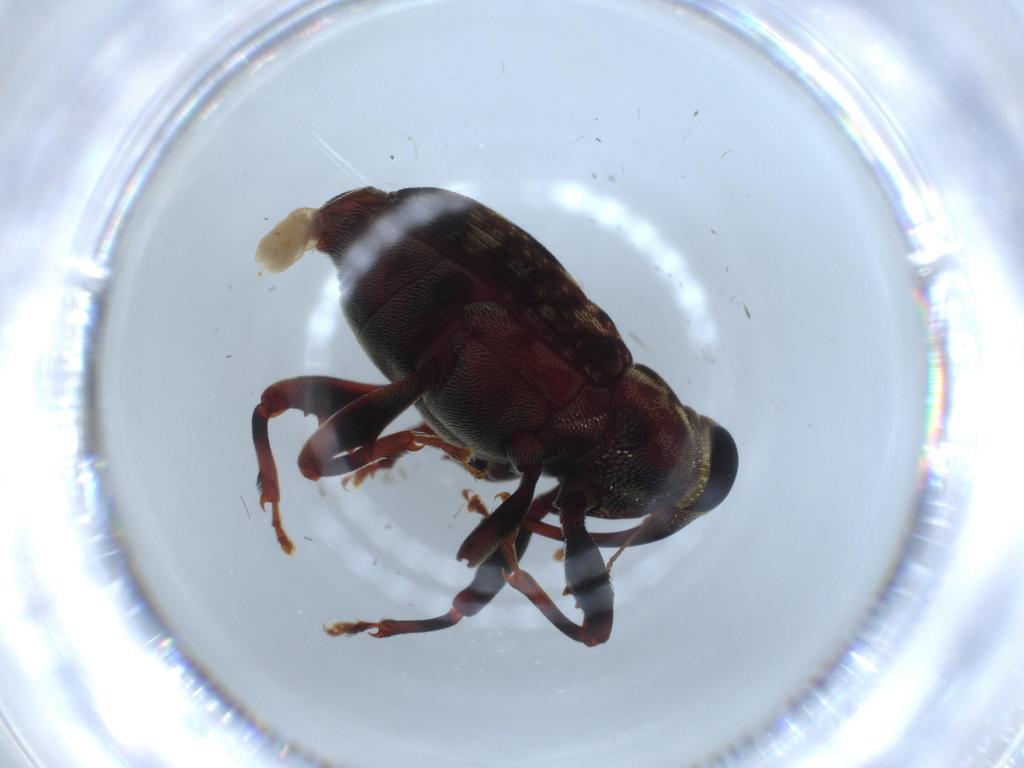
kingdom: Animalia
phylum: Arthropoda
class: Insecta
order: Coleoptera
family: Curculionidae
